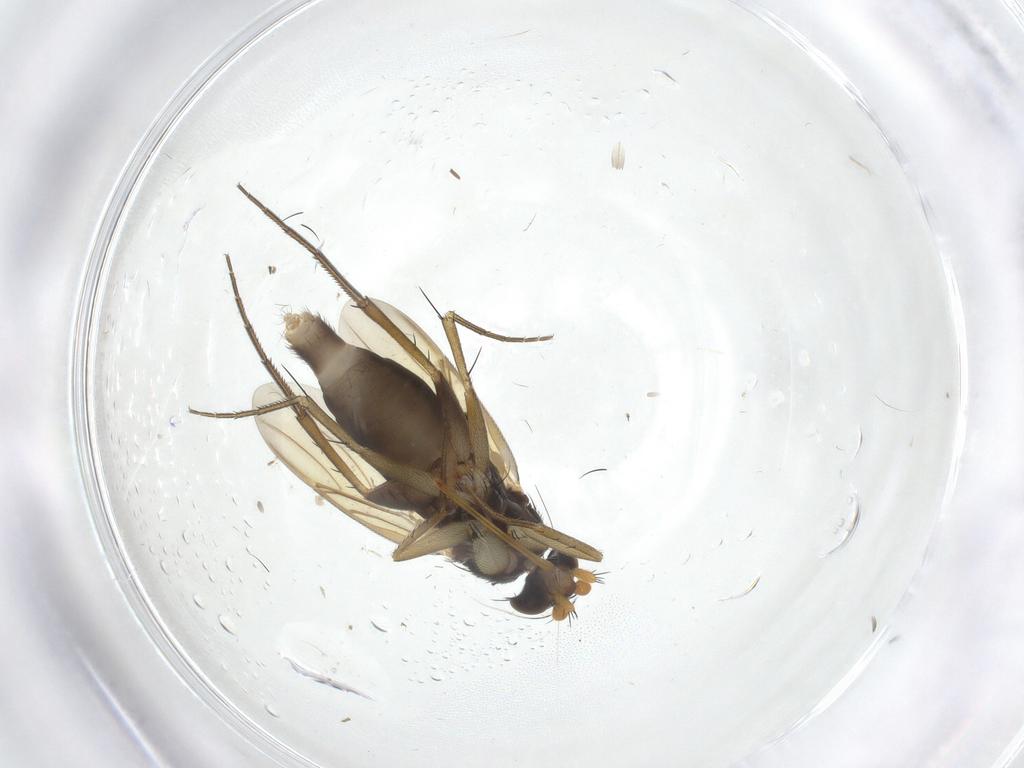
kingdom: Animalia
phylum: Arthropoda
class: Insecta
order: Diptera
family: Phoridae
